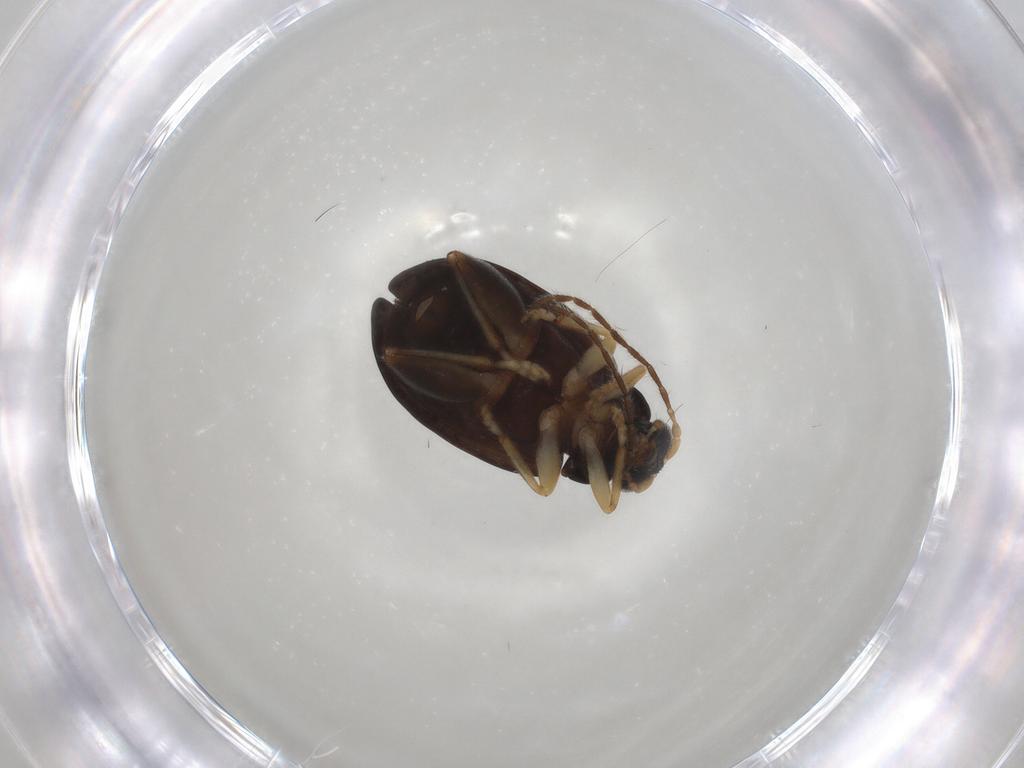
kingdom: Animalia
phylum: Arthropoda
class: Insecta
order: Coleoptera
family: Chrysomelidae
